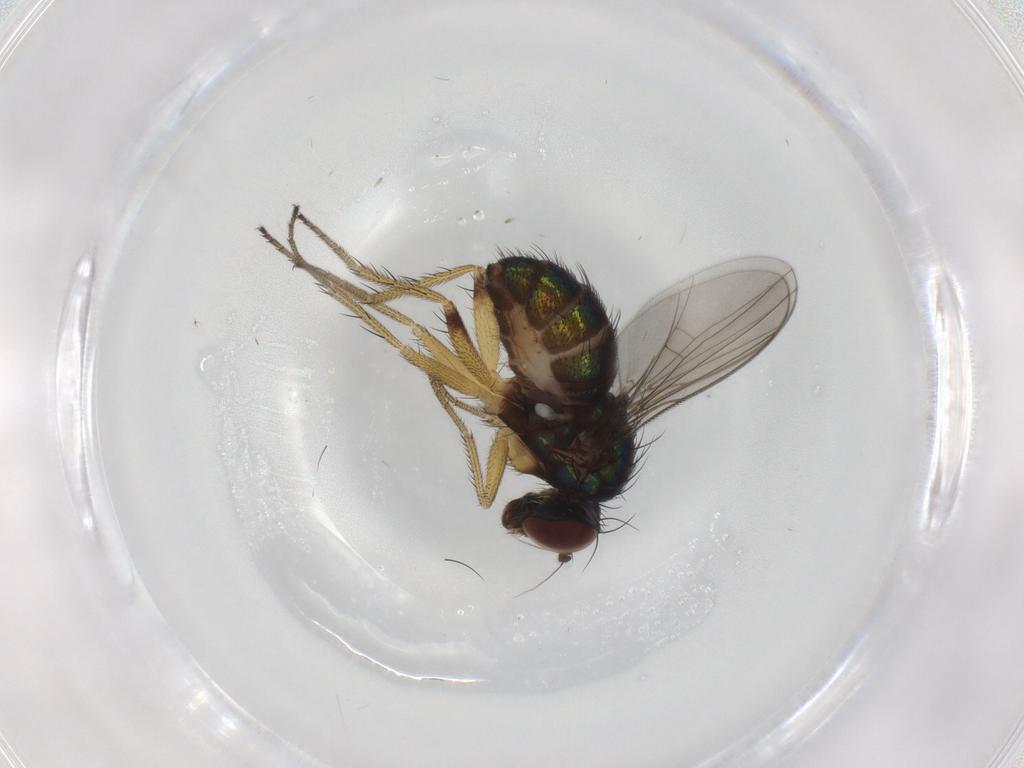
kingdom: Animalia
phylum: Arthropoda
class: Insecta
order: Diptera
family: Dolichopodidae
